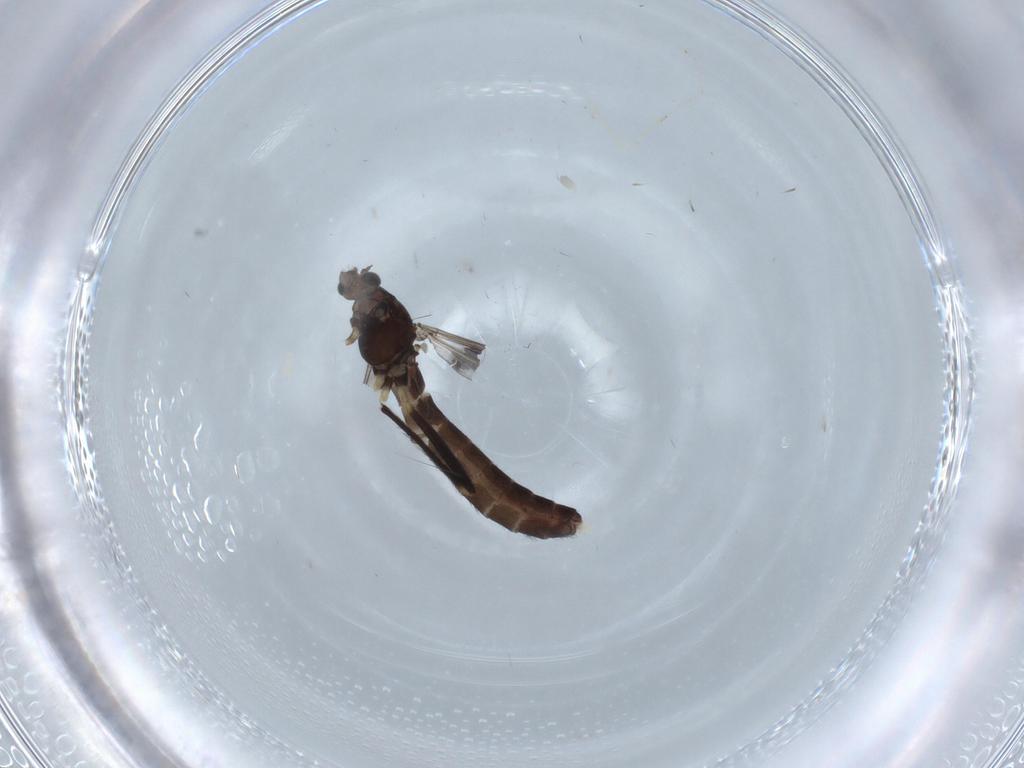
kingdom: Animalia
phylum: Arthropoda
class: Insecta
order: Diptera
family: Chironomidae
